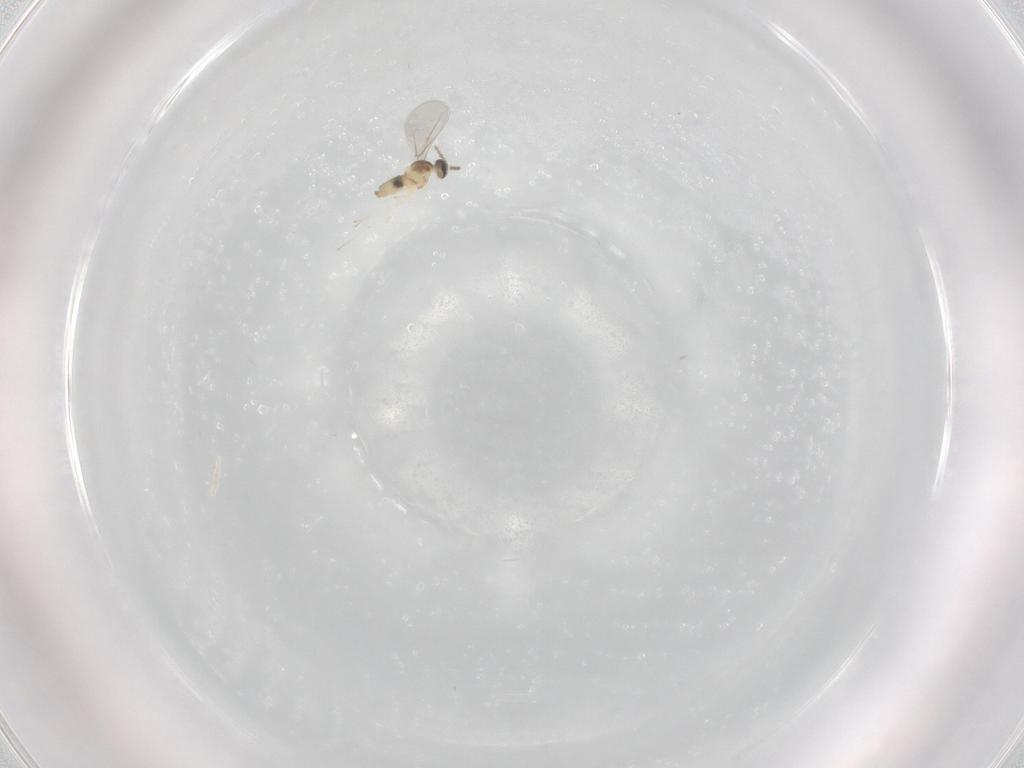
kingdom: Animalia
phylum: Arthropoda
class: Insecta
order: Diptera
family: Cecidomyiidae
